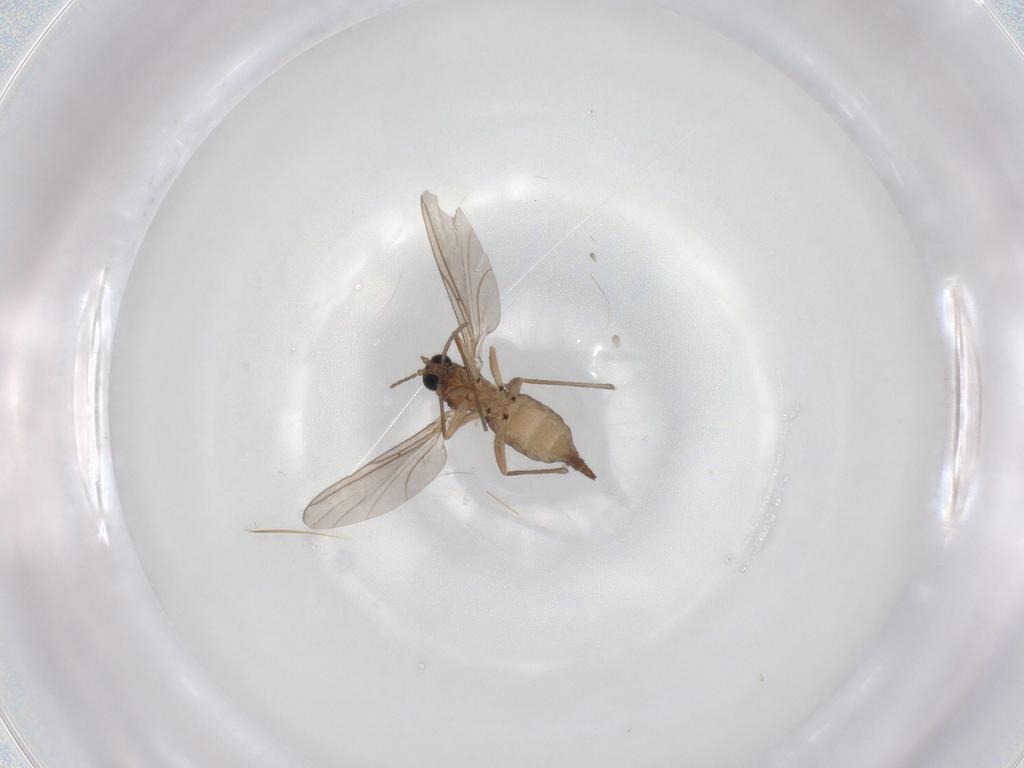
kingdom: Animalia
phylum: Arthropoda
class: Insecta
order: Diptera
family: Sciaridae
